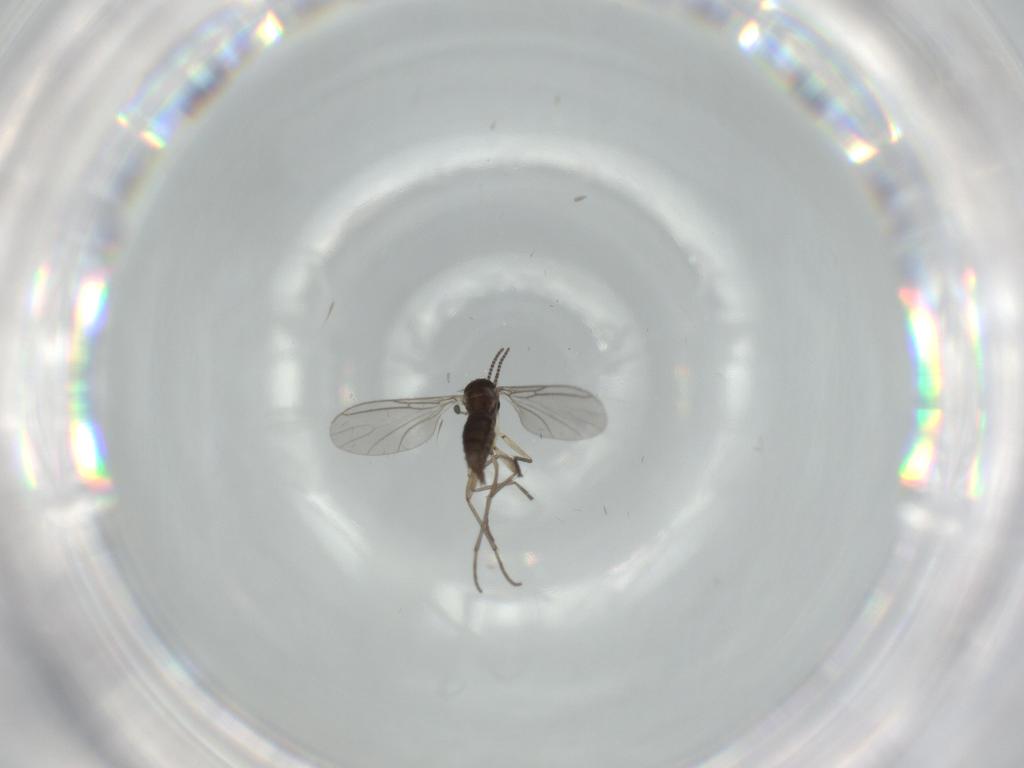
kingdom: Animalia
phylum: Arthropoda
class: Insecta
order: Diptera
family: Sciaridae
